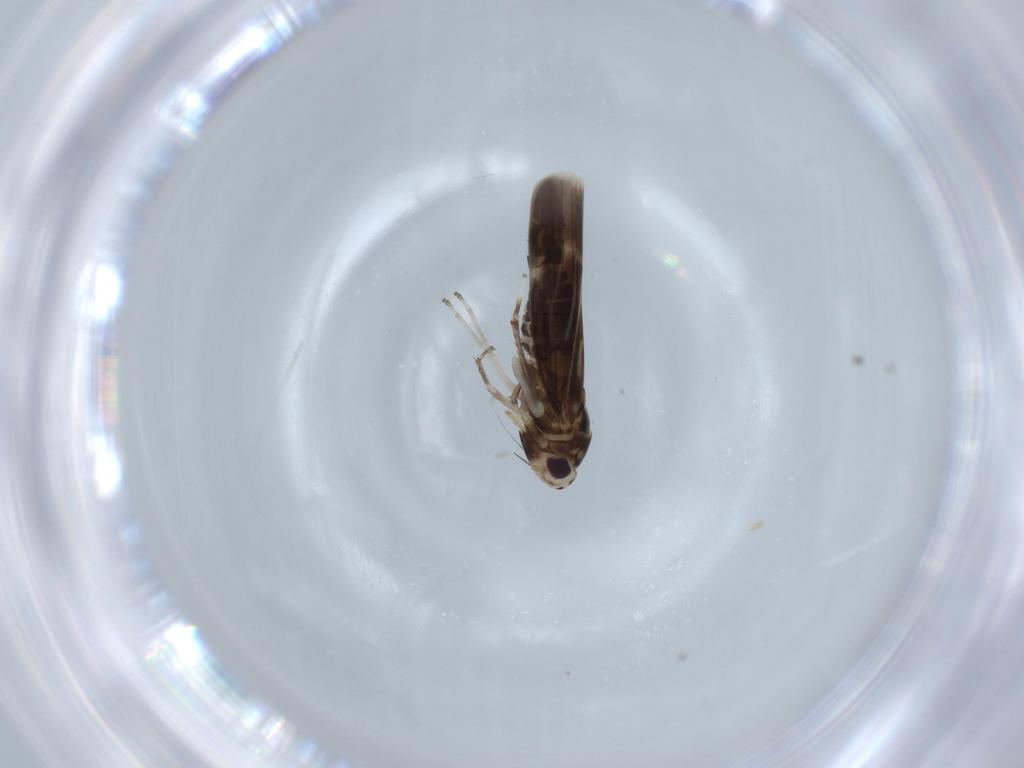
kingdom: Animalia
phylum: Arthropoda
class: Insecta
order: Hemiptera
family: Cicadellidae
